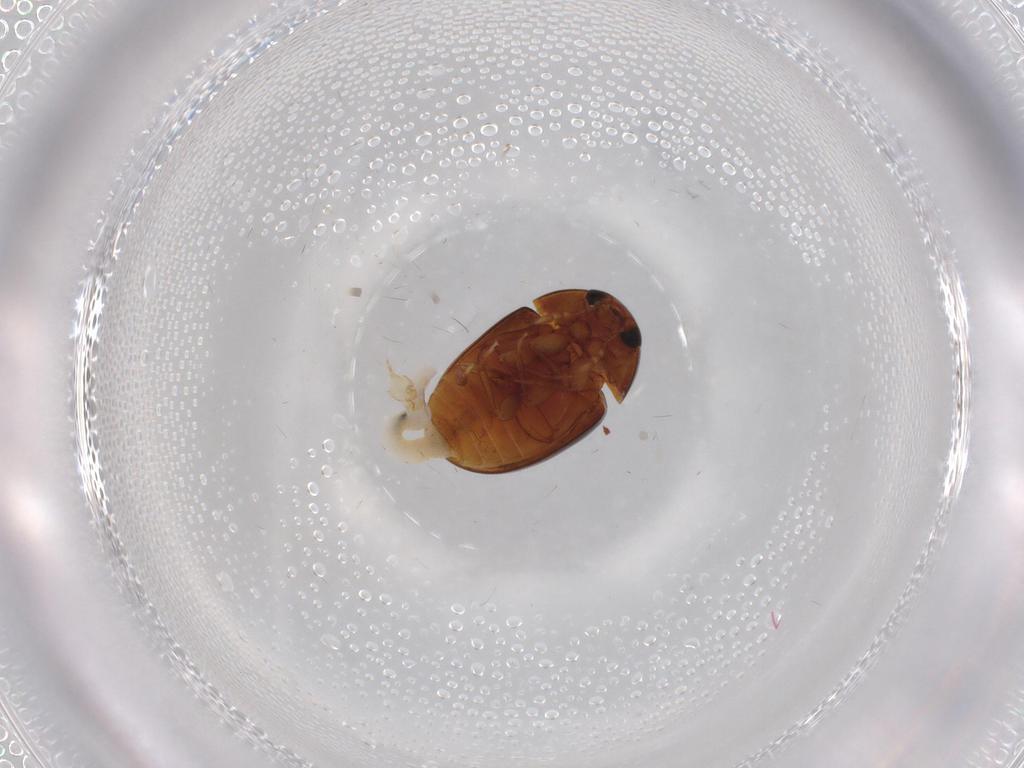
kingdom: Animalia
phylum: Arthropoda
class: Insecta
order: Coleoptera
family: Phalacridae
